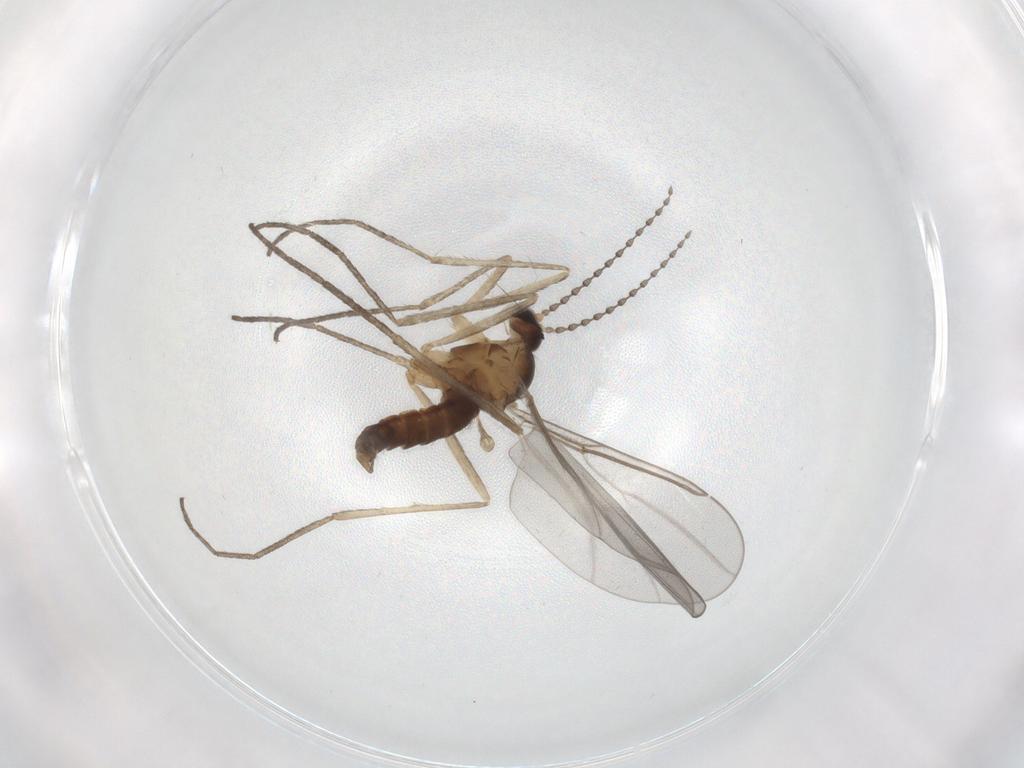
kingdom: Animalia
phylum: Arthropoda
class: Insecta
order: Diptera
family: Cecidomyiidae
